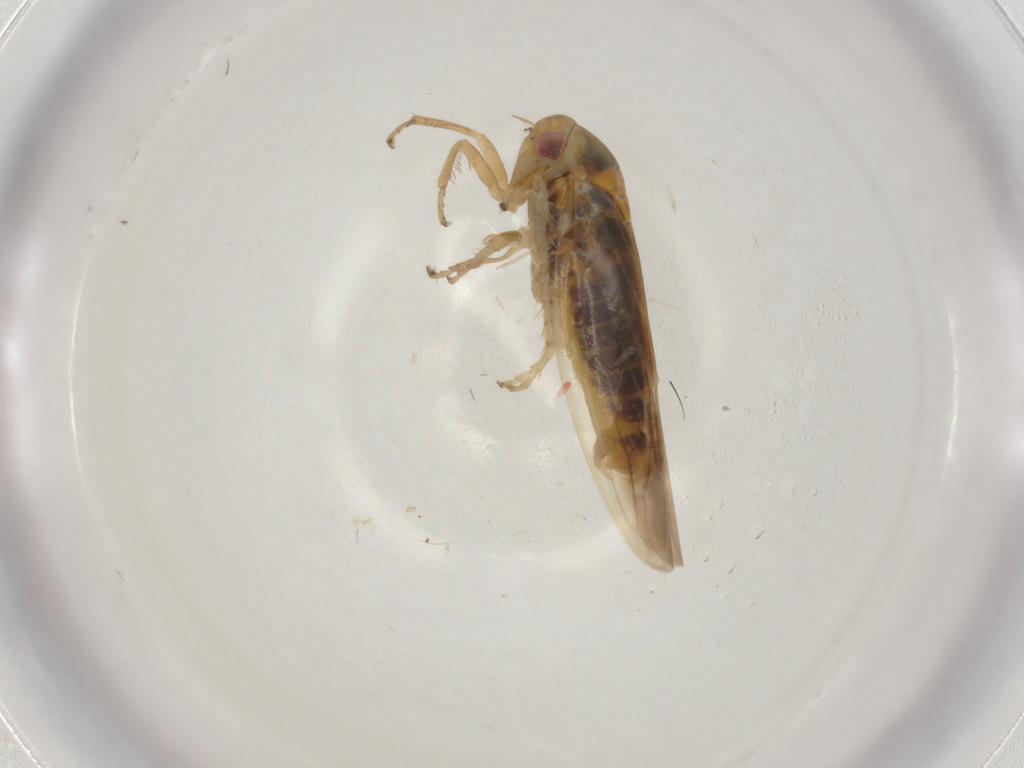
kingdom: Animalia
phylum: Arthropoda
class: Insecta
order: Hemiptera
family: Cicadellidae
